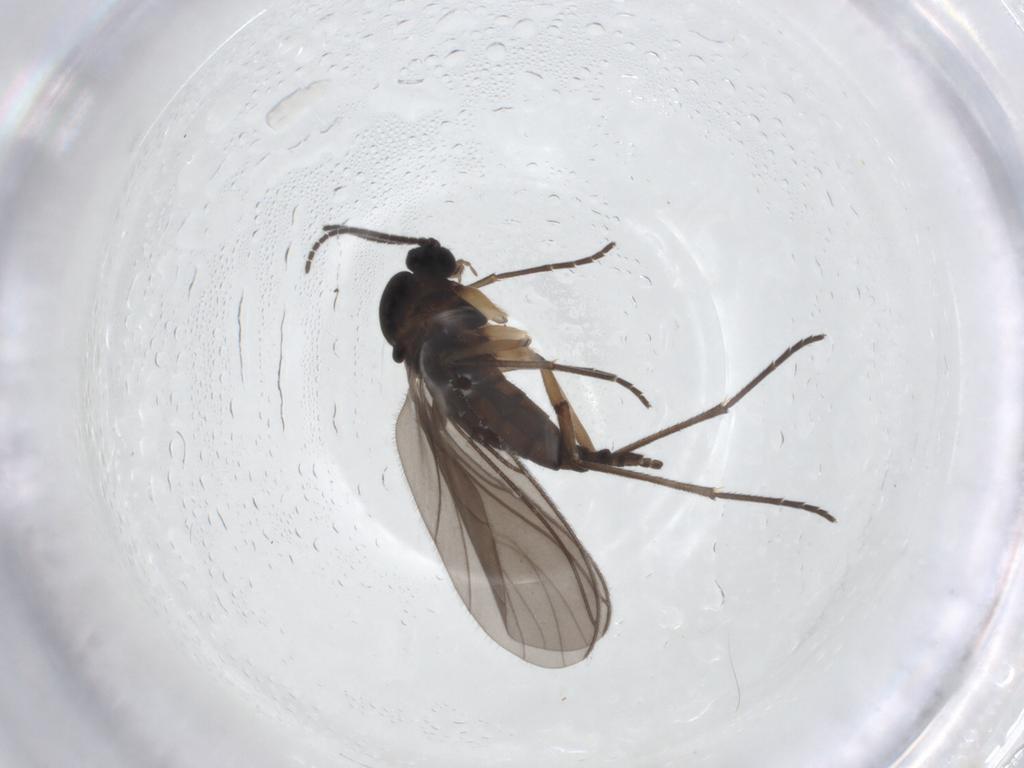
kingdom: Animalia
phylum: Arthropoda
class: Insecta
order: Diptera
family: Sciaridae
